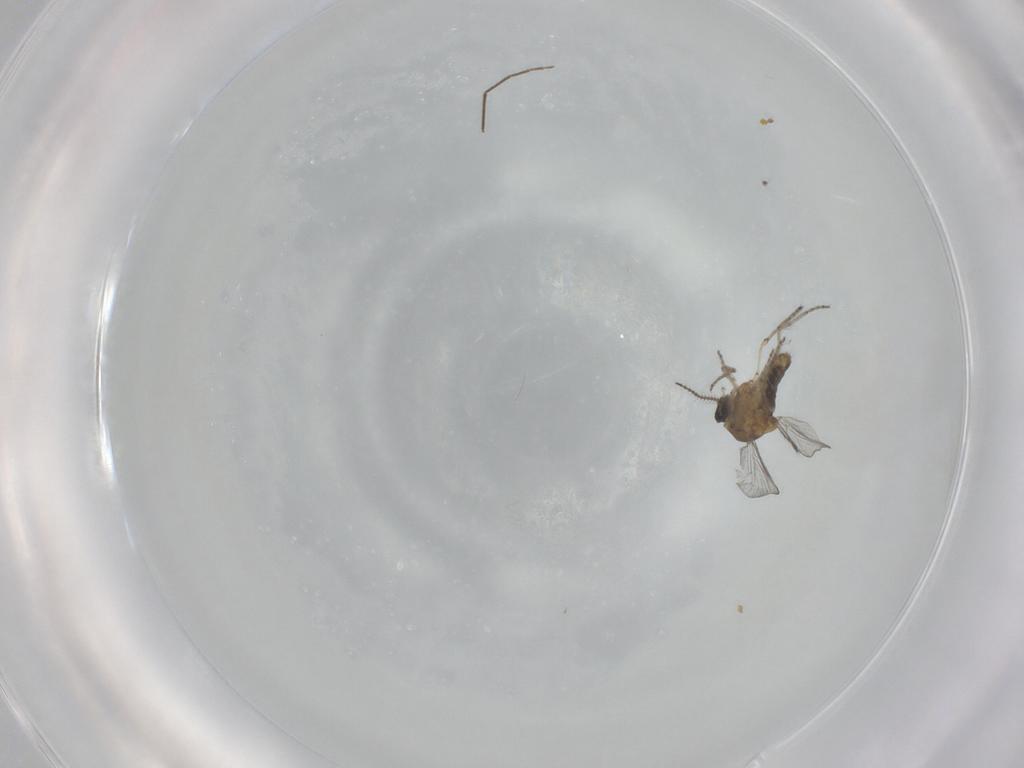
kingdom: Animalia
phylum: Arthropoda
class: Insecta
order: Diptera
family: Ceratopogonidae
